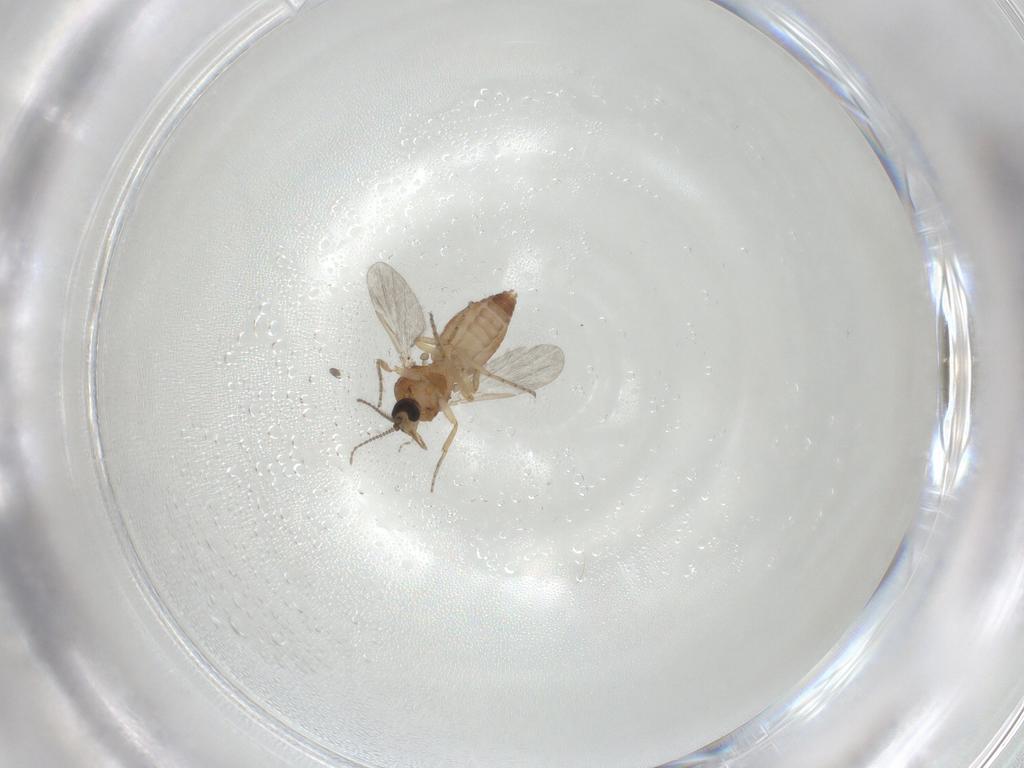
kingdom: Animalia
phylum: Arthropoda
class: Insecta
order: Diptera
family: Ceratopogonidae
